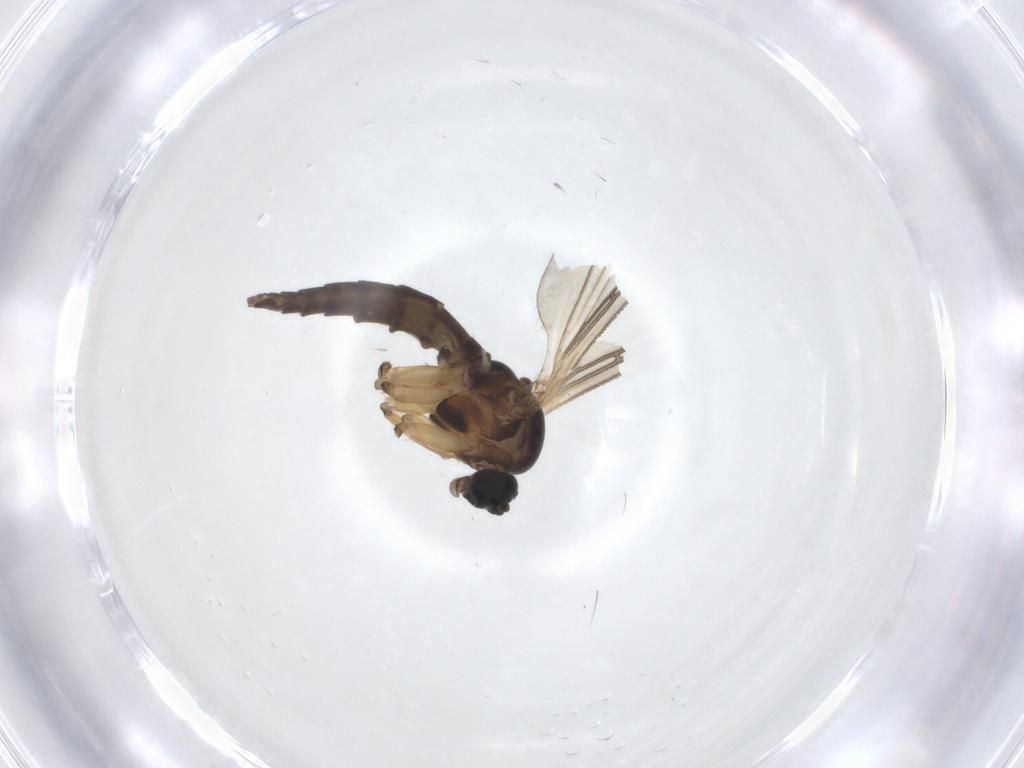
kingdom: Animalia
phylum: Arthropoda
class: Insecta
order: Diptera
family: Sciaridae
